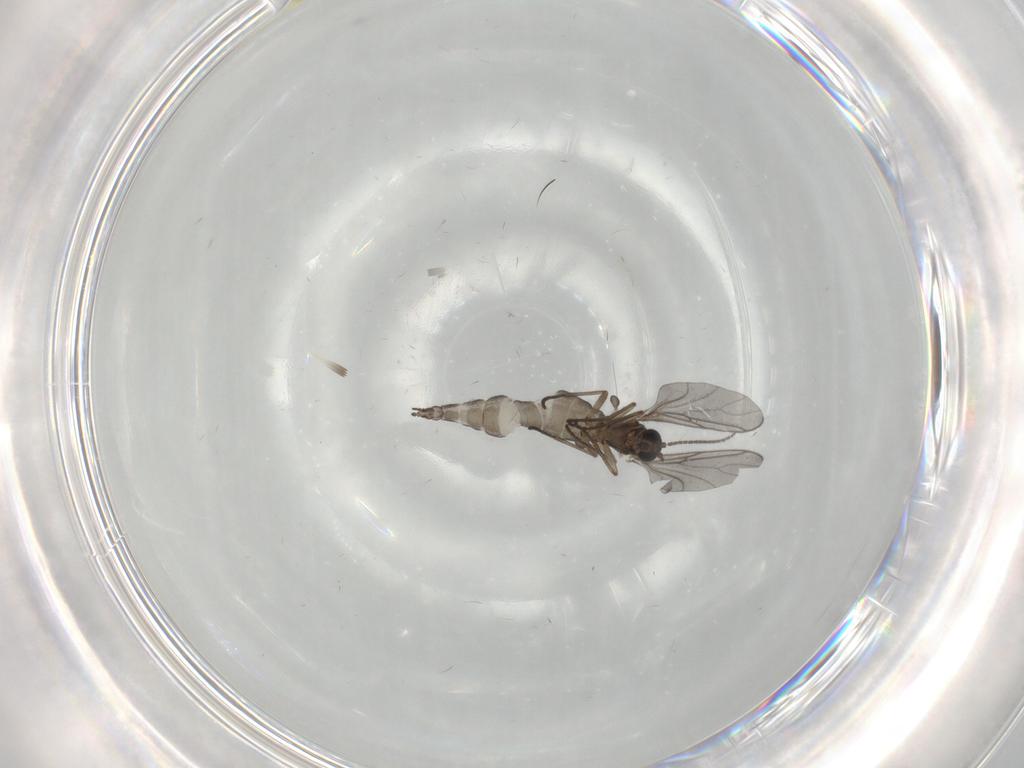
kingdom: Animalia
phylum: Arthropoda
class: Insecta
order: Diptera
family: Sciaridae
